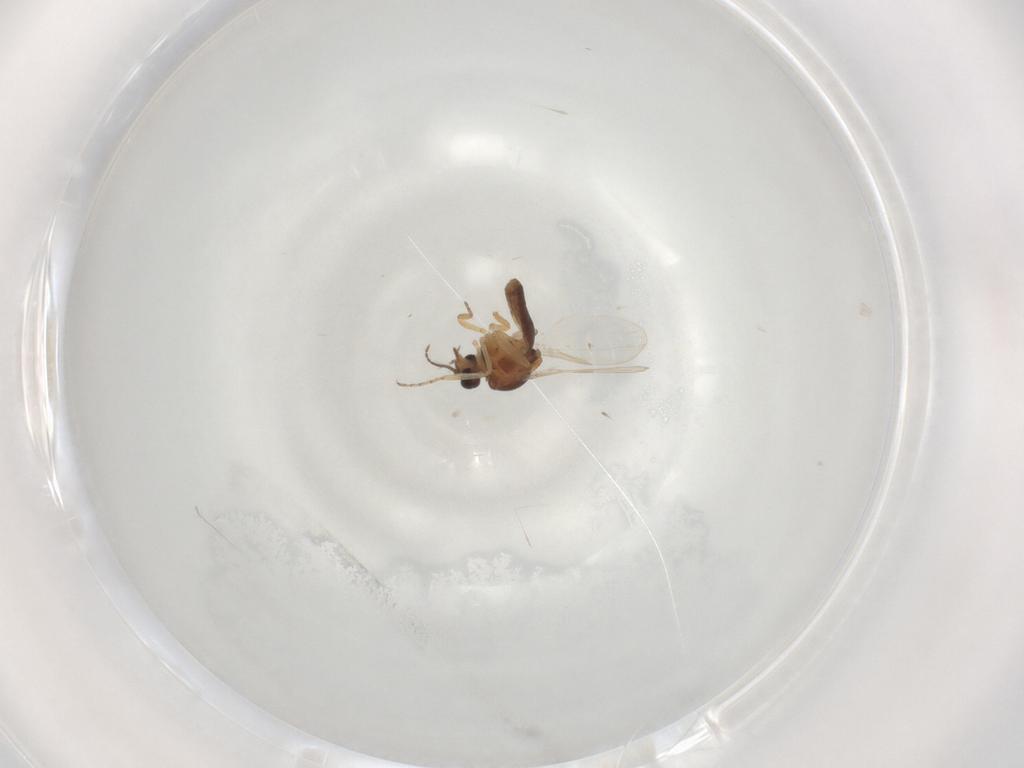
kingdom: Animalia
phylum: Arthropoda
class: Insecta
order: Diptera
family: Ceratopogonidae
